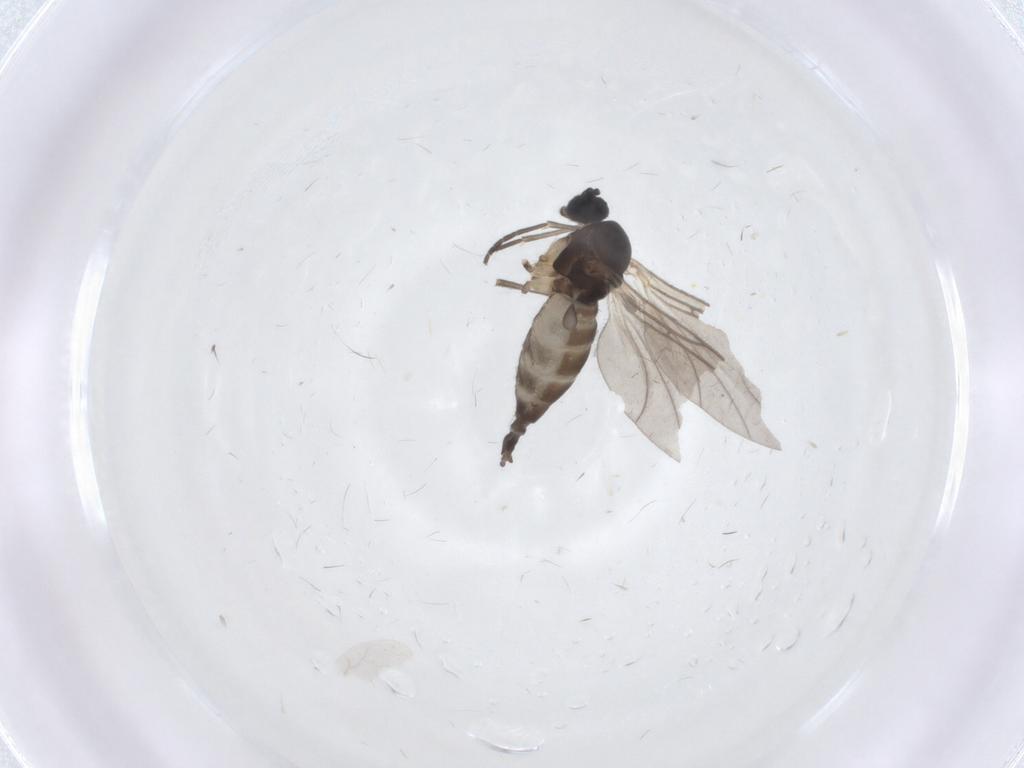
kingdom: Animalia
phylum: Arthropoda
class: Insecta
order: Diptera
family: Sciaridae
